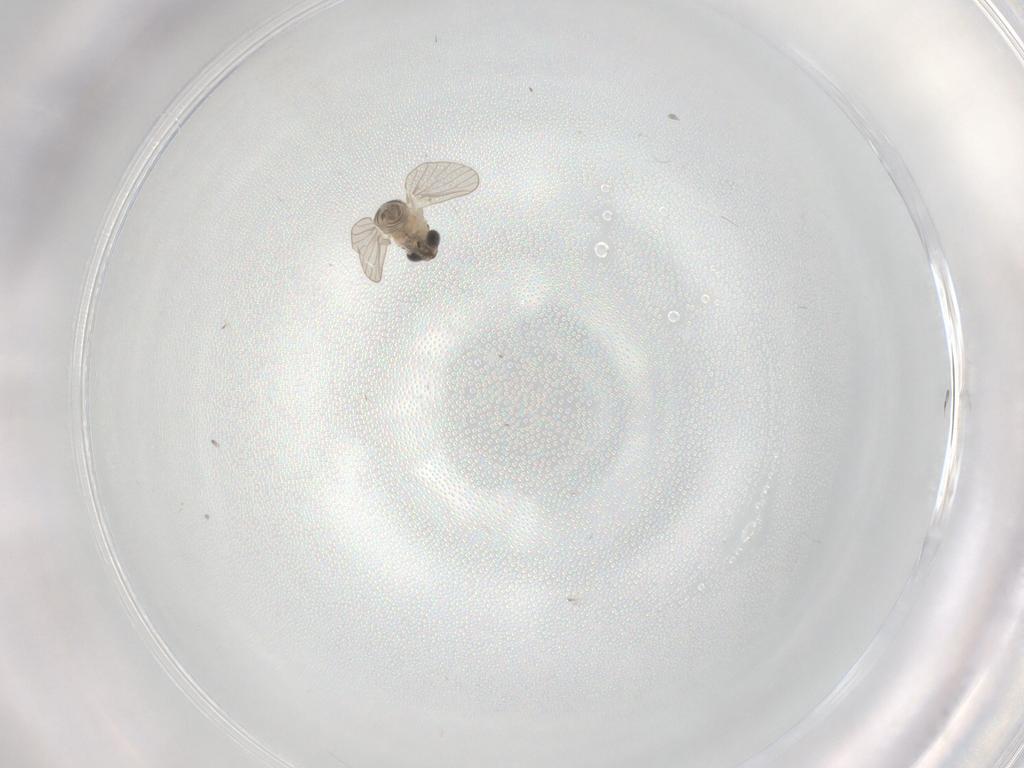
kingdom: Animalia
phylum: Arthropoda
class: Insecta
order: Diptera
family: Psychodidae
